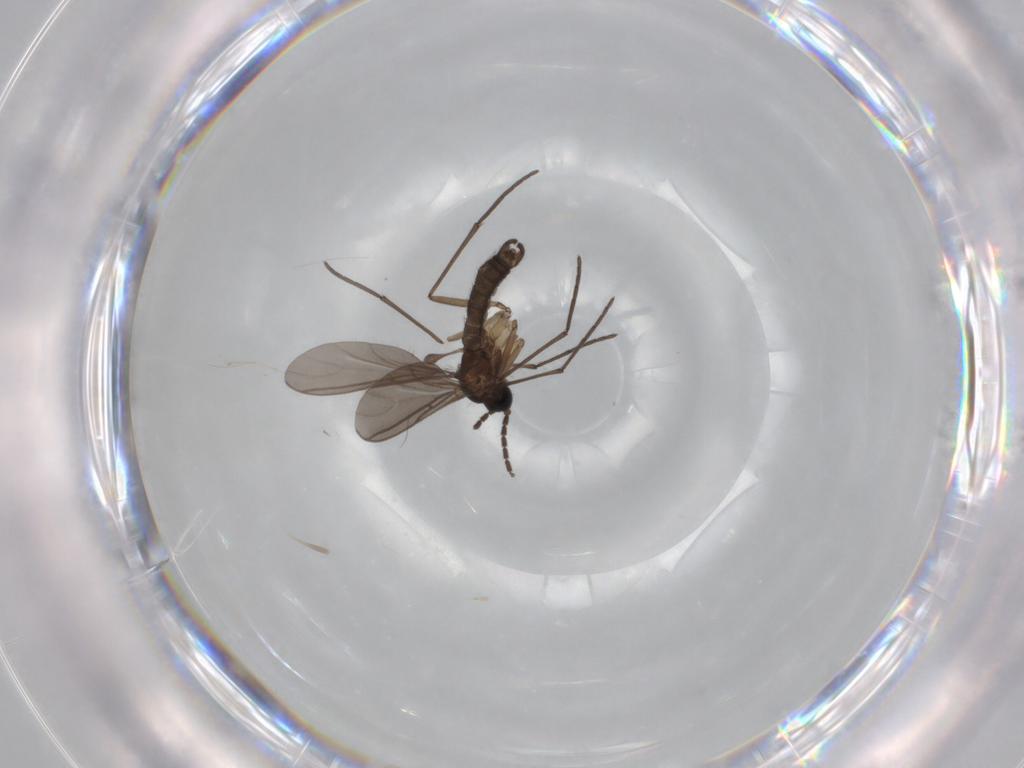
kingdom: Animalia
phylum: Arthropoda
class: Insecta
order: Diptera
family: Sciaridae
